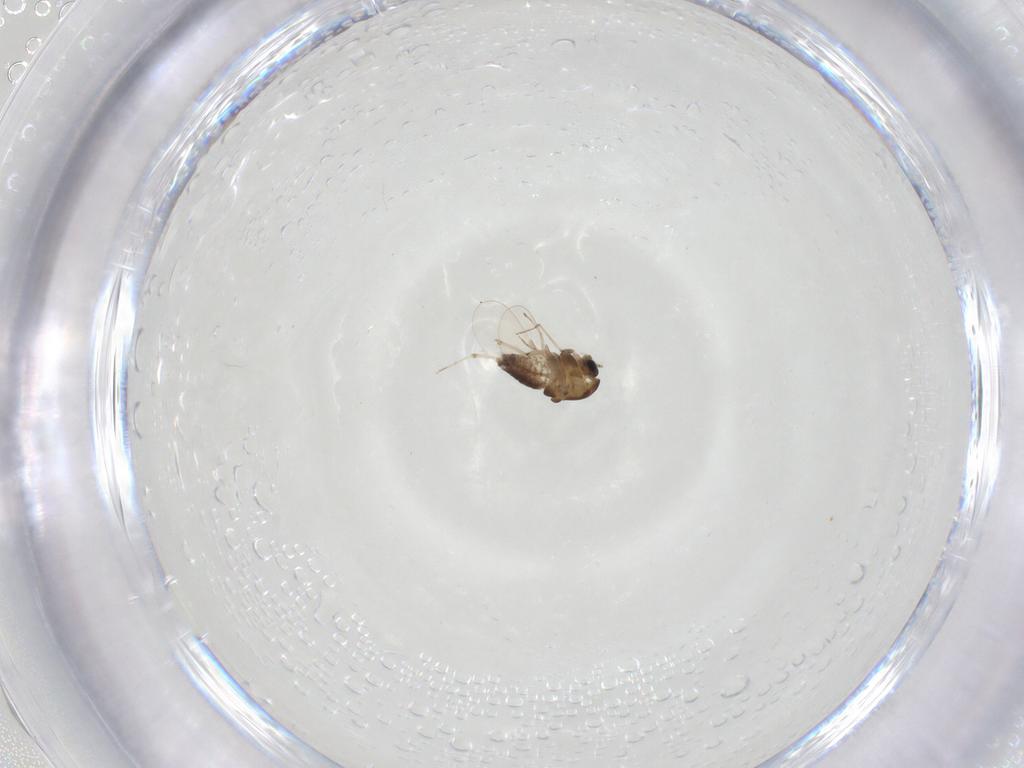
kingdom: Animalia
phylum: Arthropoda
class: Insecta
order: Diptera
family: Chironomidae
